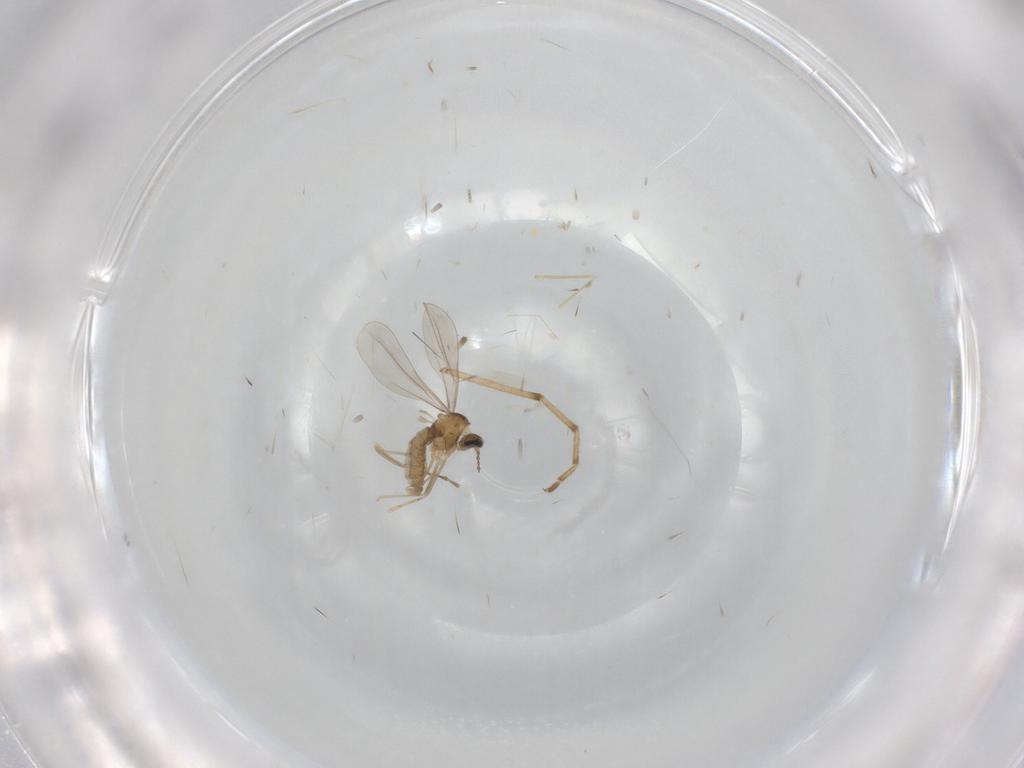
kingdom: Animalia
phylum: Arthropoda
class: Insecta
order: Diptera
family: Cecidomyiidae
